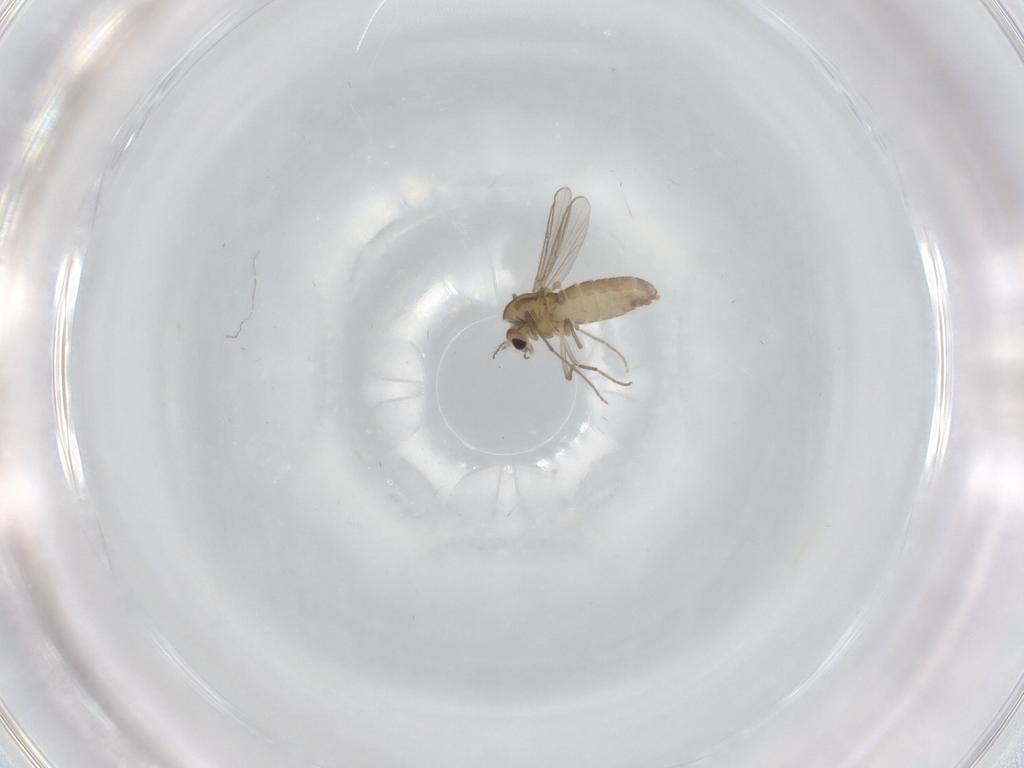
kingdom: Animalia
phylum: Arthropoda
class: Insecta
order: Diptera
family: Chironomidae
